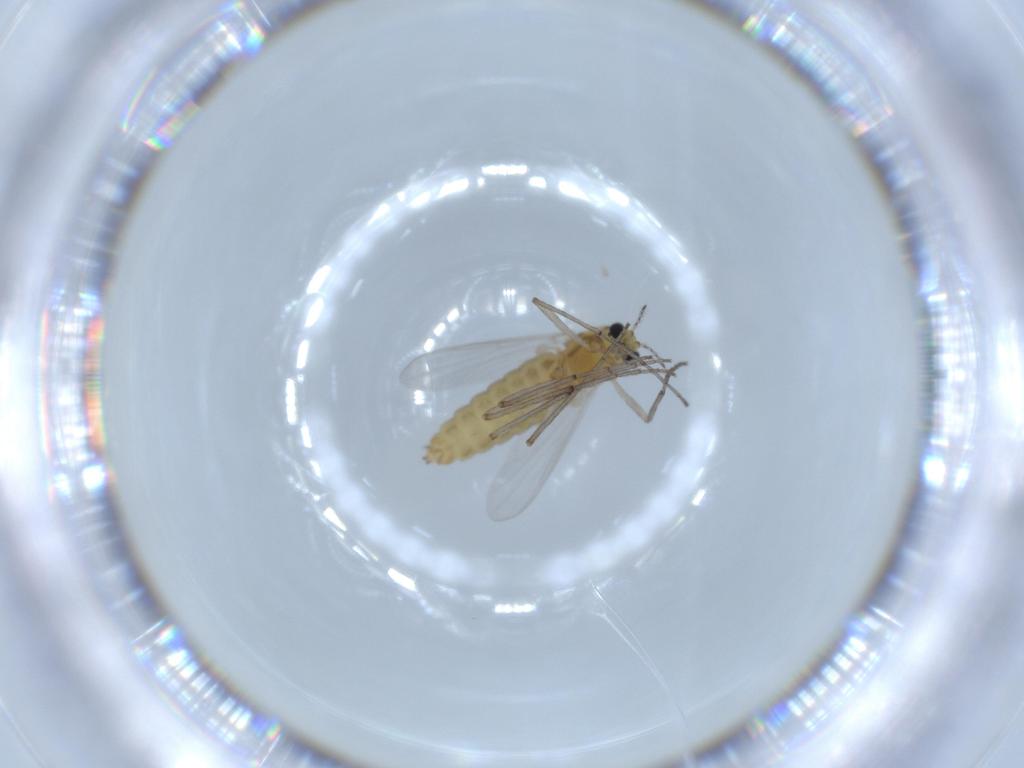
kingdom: Animalia
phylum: Arthropoda
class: Insecta
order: Diptera
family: Chironomidae
